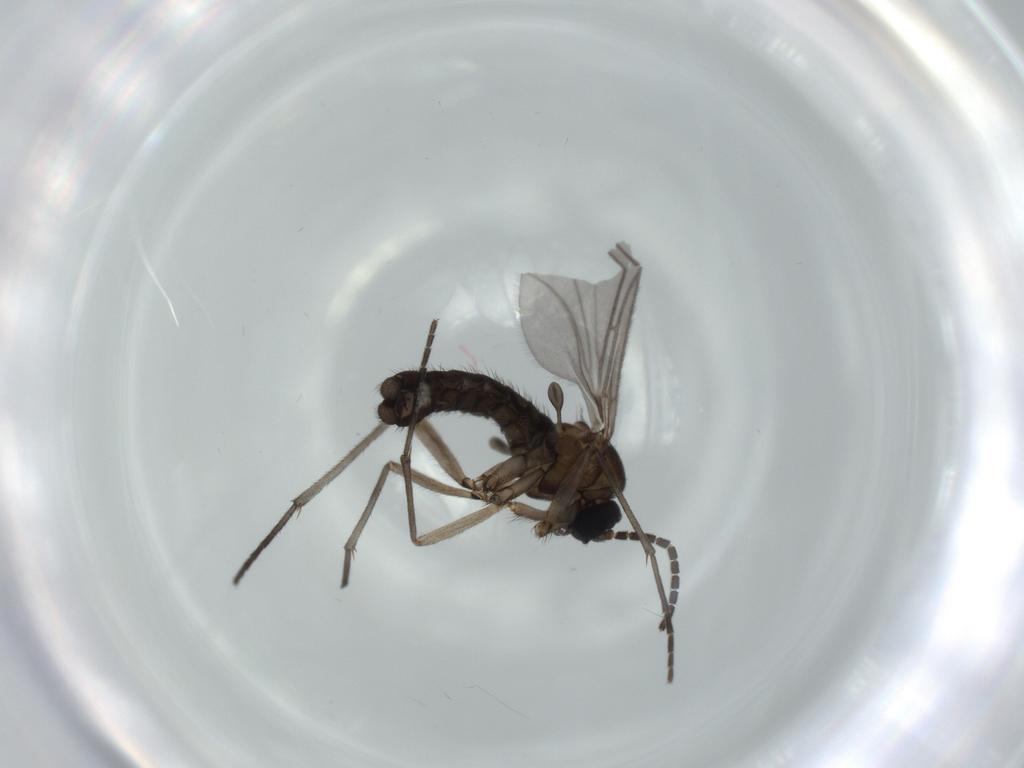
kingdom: Animalia
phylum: Arthropoda
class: Insecta
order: Diptera
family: Sciaridae
